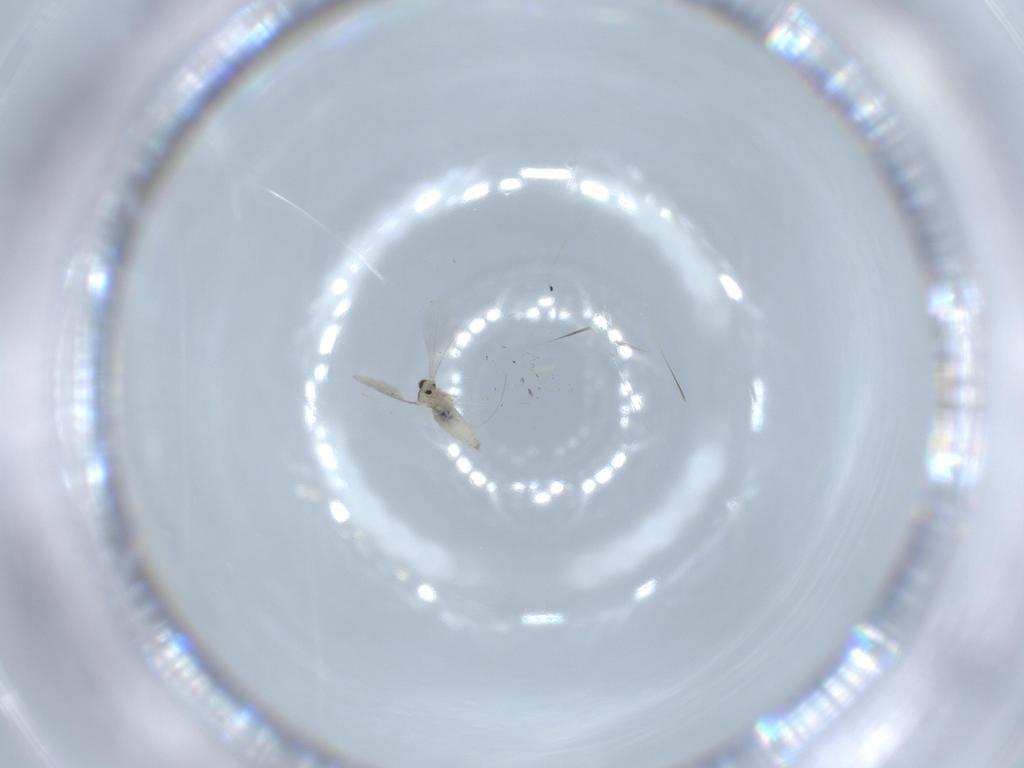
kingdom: Animalia
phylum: Arthropoda
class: Insecta
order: Diptera
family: Cecidomyiidae
